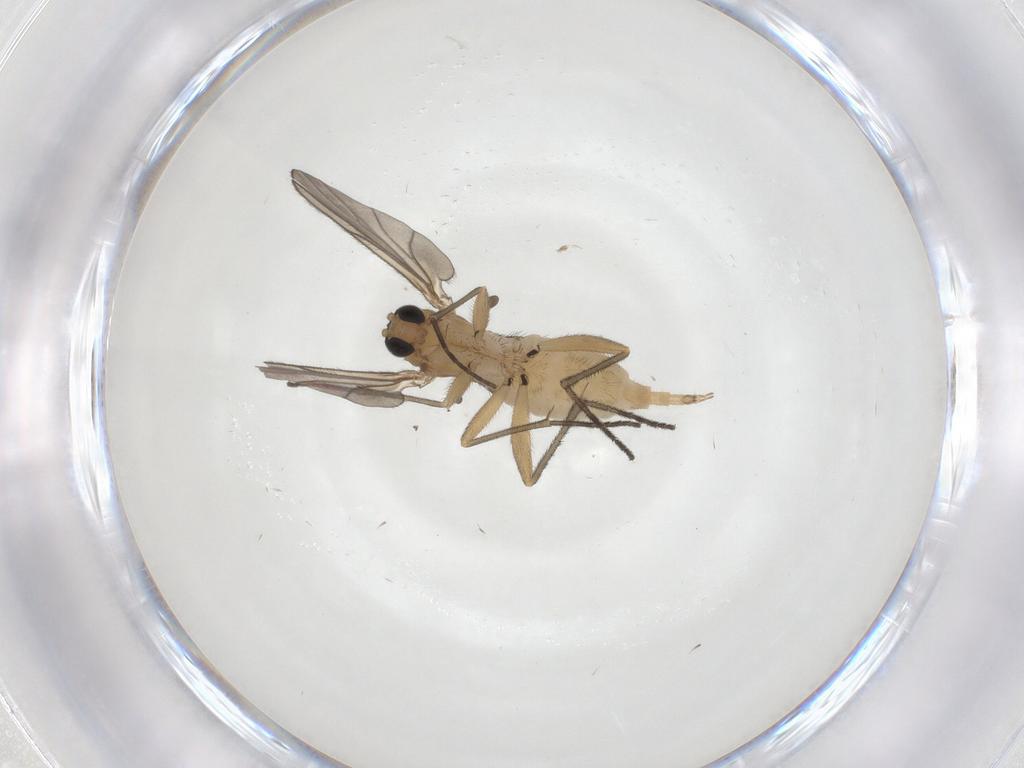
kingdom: Animalia
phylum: Arthropoda
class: Insecta
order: Diptera
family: Sciaridae
